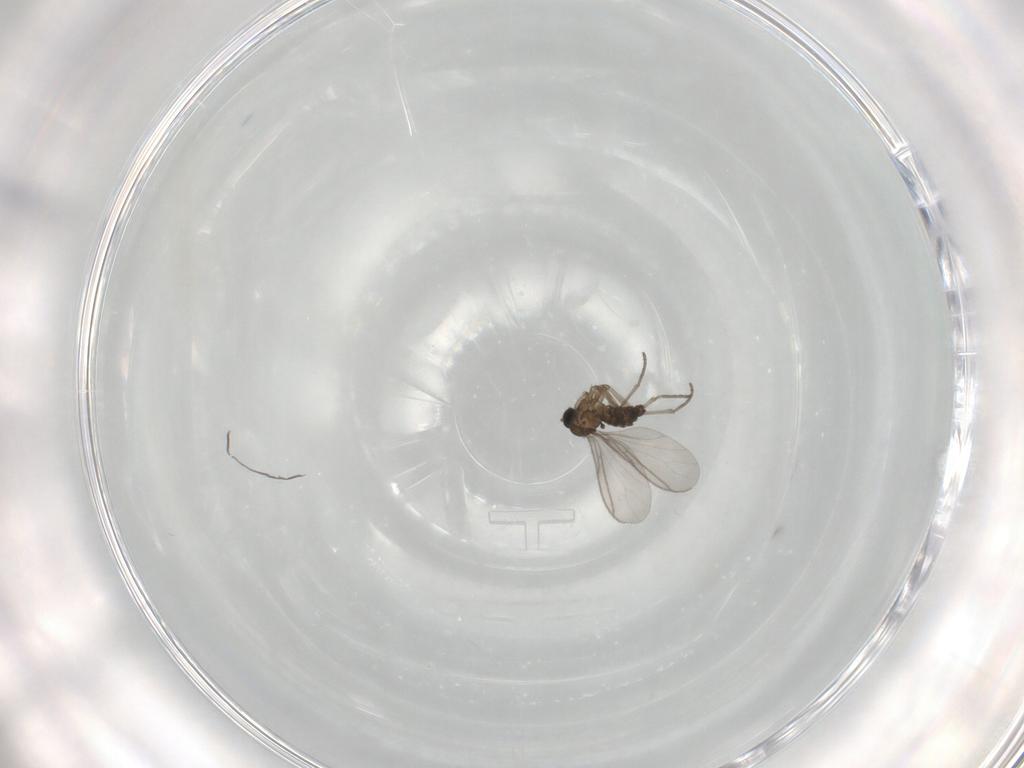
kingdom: Animalia
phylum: Arthropoda
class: Insecta
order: Diptera
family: Sciaridae
